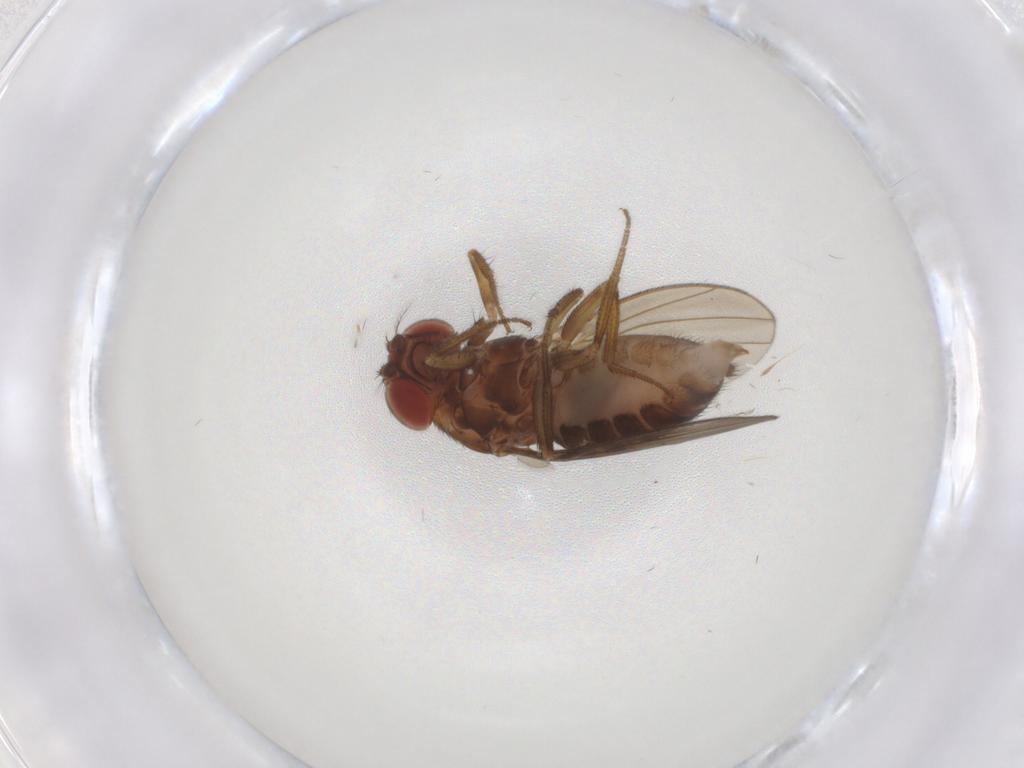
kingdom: Animalia
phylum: Arthropoda
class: Insecta
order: Diptera
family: Drosophilidae
